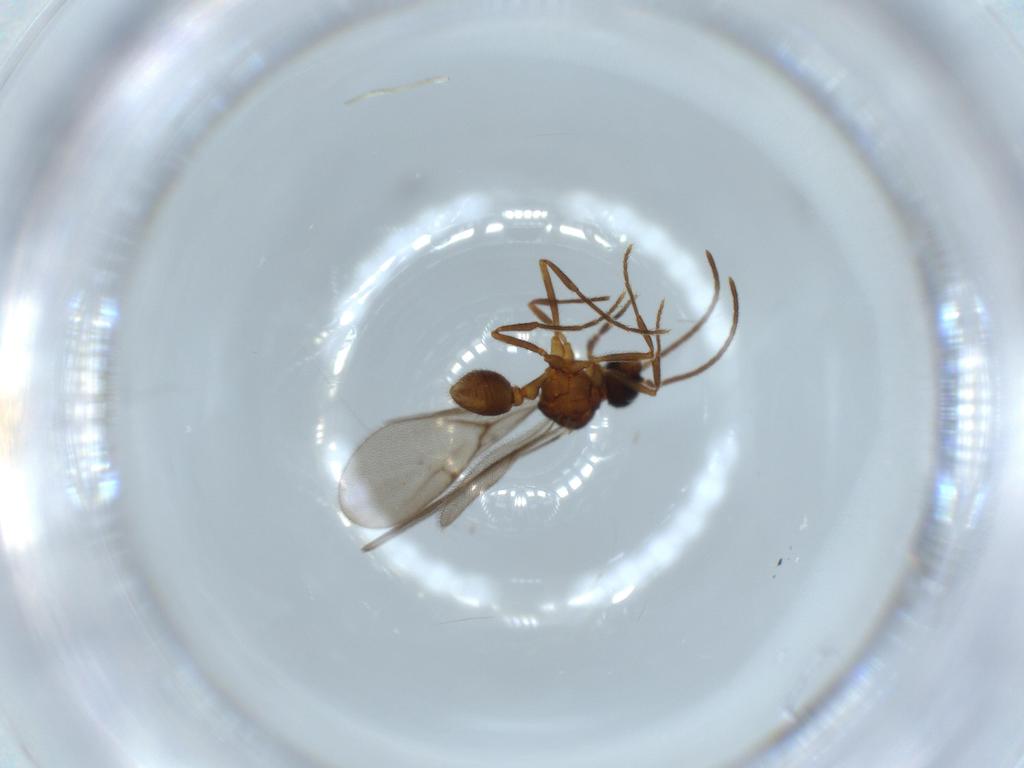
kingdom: Animalia
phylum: Arthropoda
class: Insecta
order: Hymenoptera
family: Formicidae
